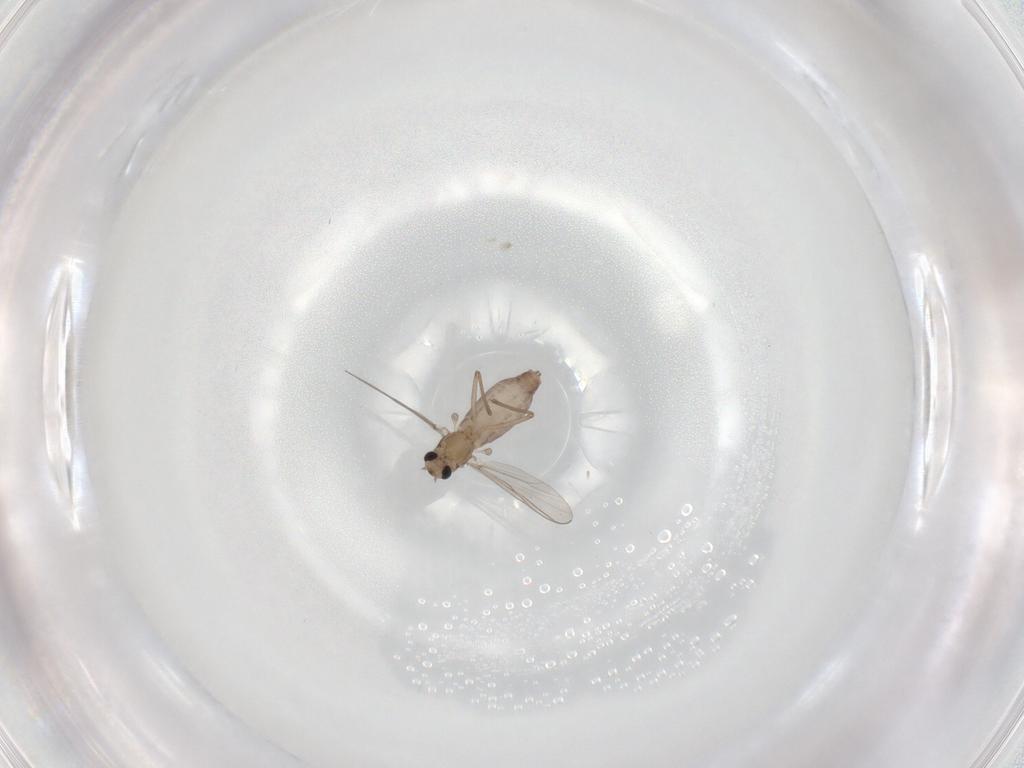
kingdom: Animalia
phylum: Arthropoda
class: Insecta
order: Diptera
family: Chironomidae
